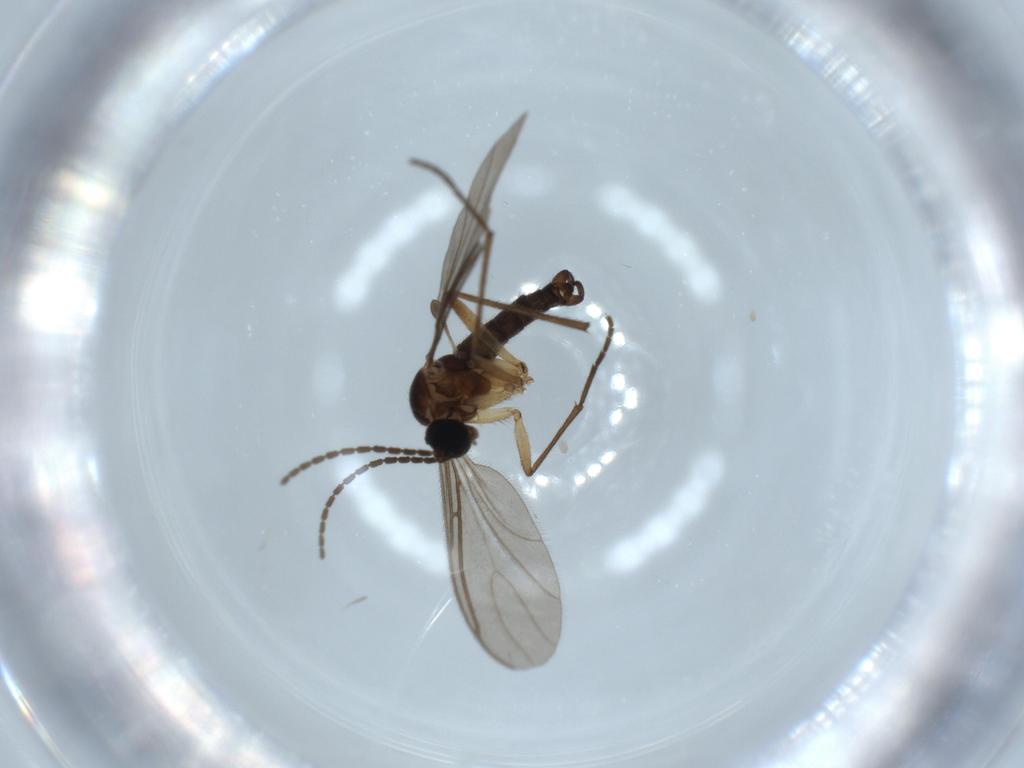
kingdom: Animalia
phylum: Arthropoda
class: Insecta
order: Diptera
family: Sciaridae
